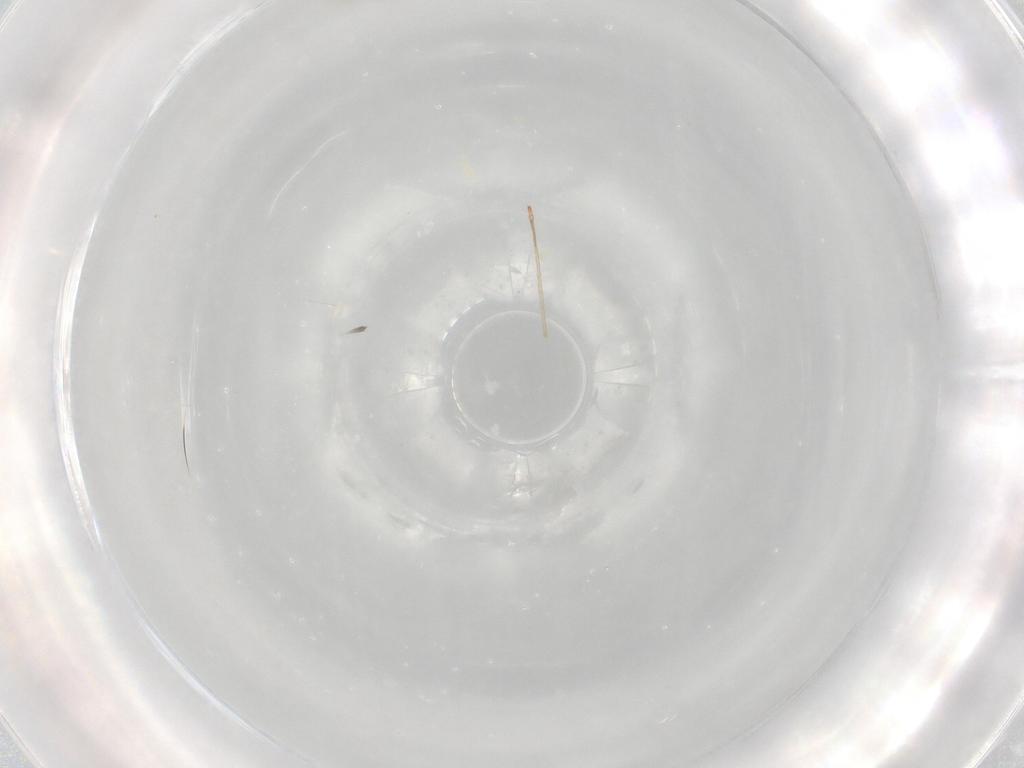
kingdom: Animalia
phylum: Arthropoda
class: Insecta
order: Diptera
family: Cecidomyiidae
